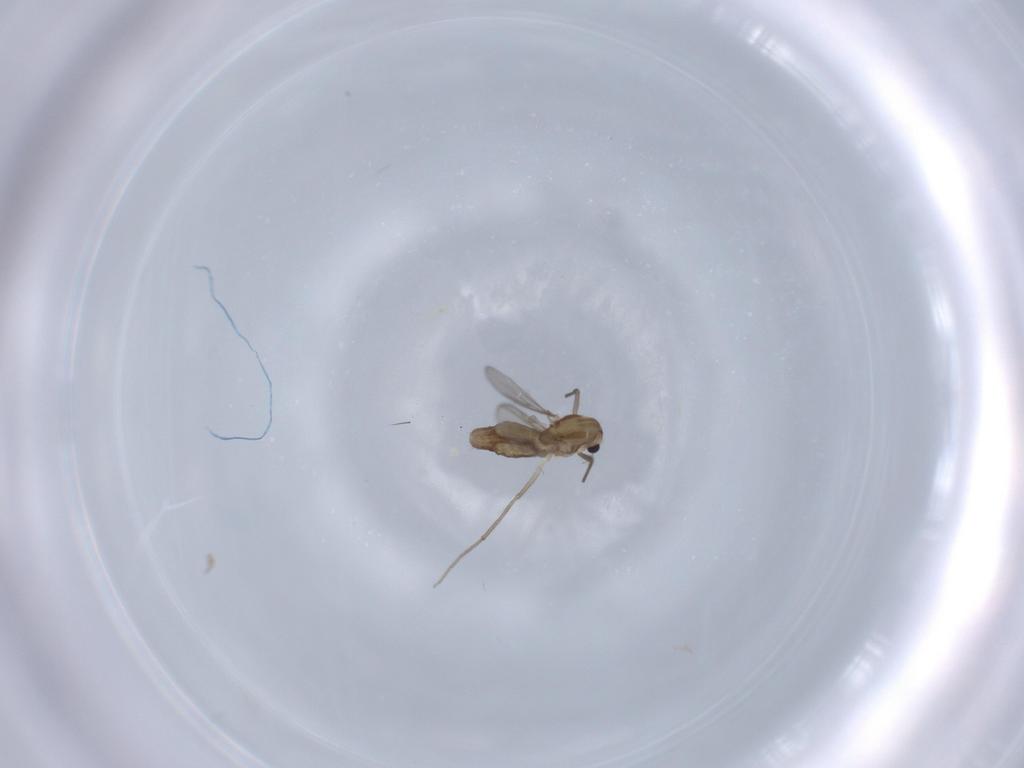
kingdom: Animalia
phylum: Arthropoda
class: Insecta
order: Diptera
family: Chironomidae
